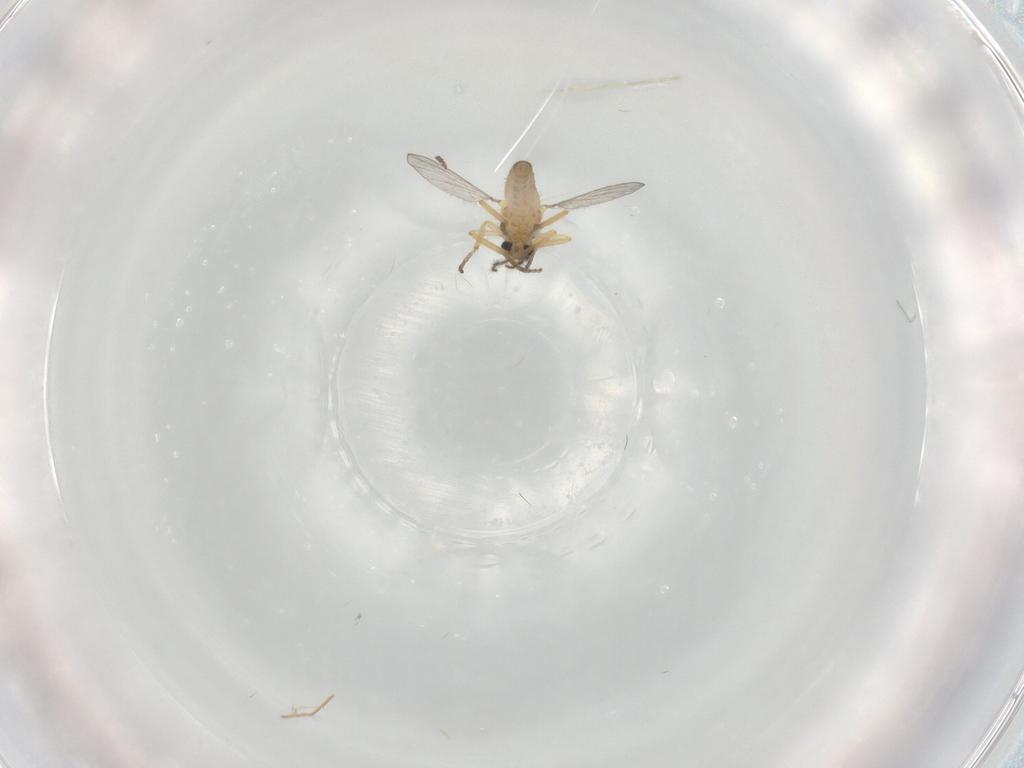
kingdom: Animalia
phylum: Arthropoda
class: Insecta
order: Diptera
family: Ceratopogonidae
